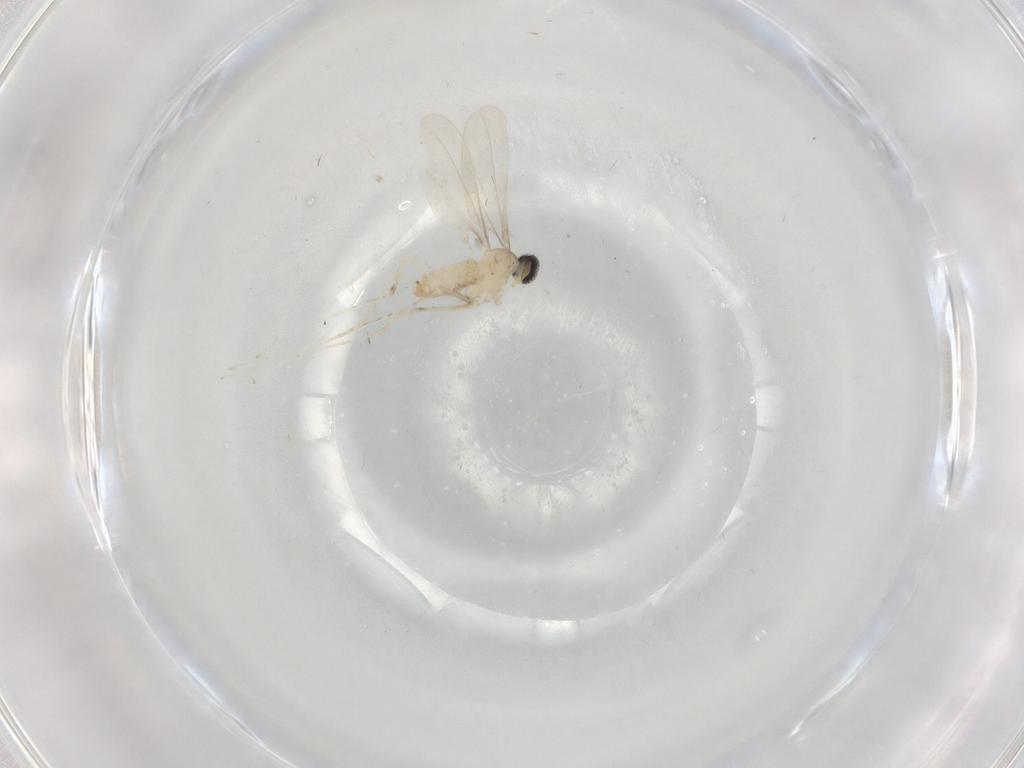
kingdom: Animalia
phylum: Arthropoda
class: Insecta
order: Diptera
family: Cecidomyiidae
